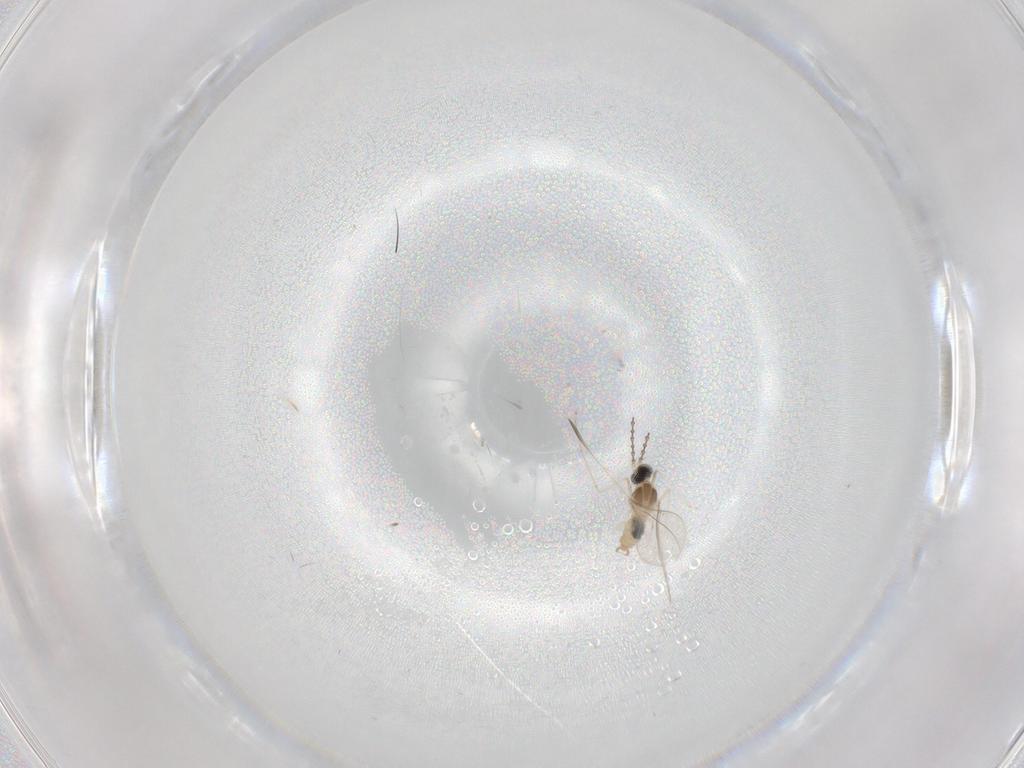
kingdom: Animalia
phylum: Arthropoda
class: Insecta
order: Diptera
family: Cecidomyiidae
